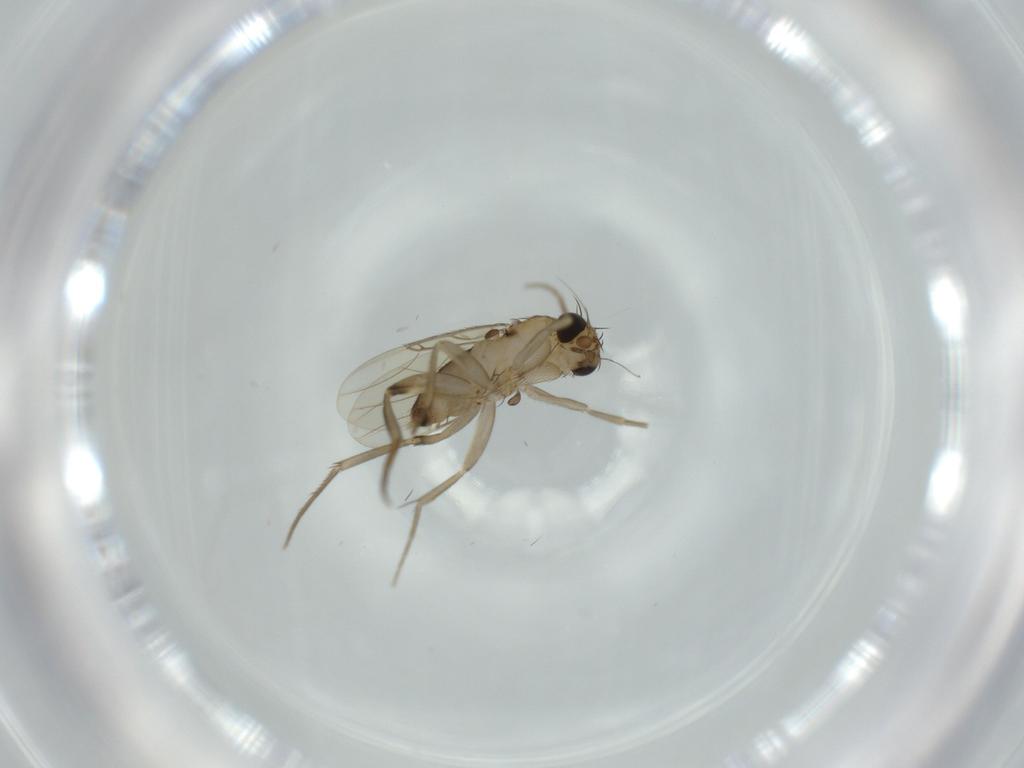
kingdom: Animalia
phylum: Arthropoda
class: Insecta
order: Diptera
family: Phoridae
